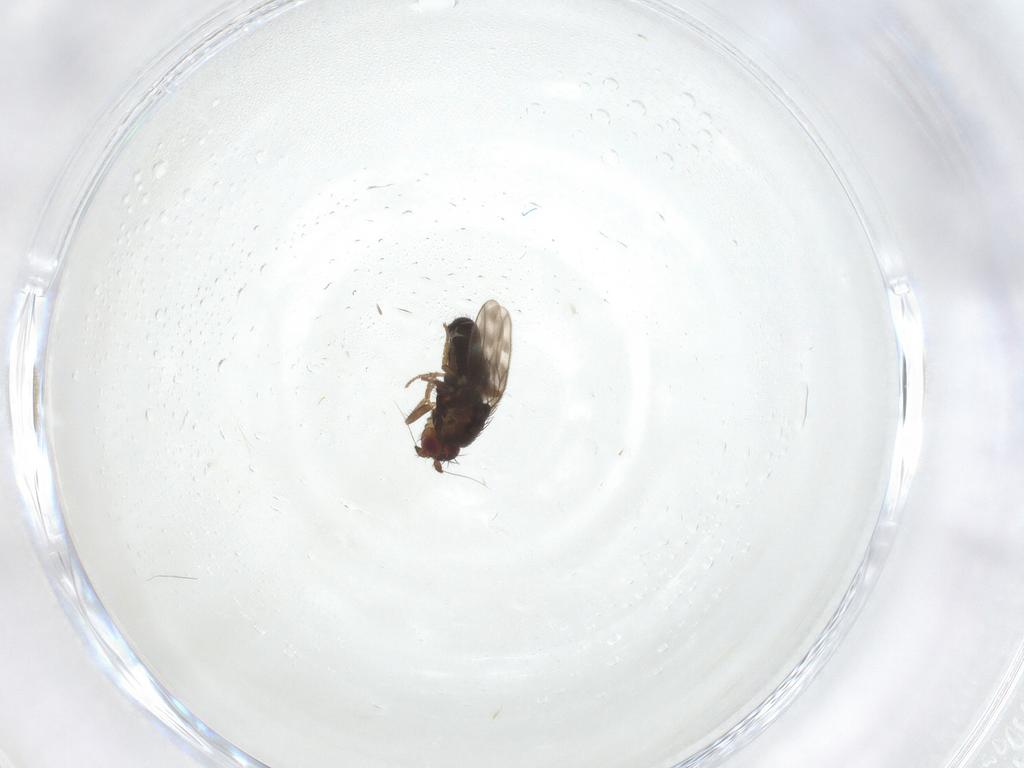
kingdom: Animalia
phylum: Arthropoda
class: Insecta
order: Diptera
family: Sphaeroceridae
